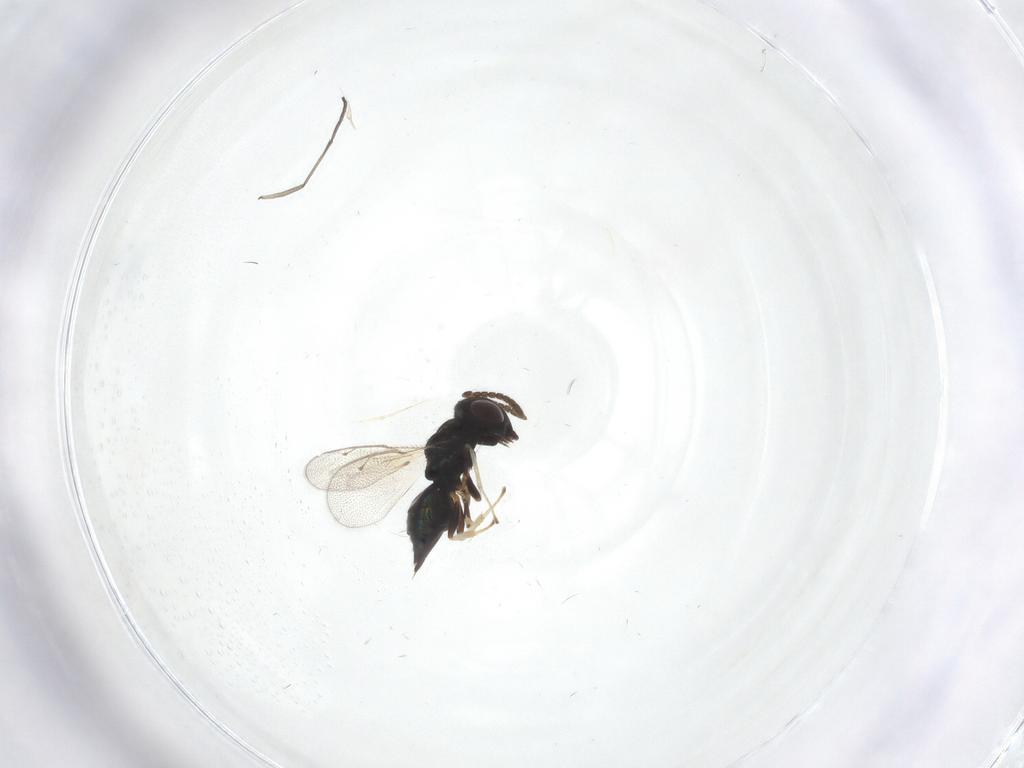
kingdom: Animalia
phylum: Arthropoda
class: Insecta
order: Hymenoptera
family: Pteromalidae
